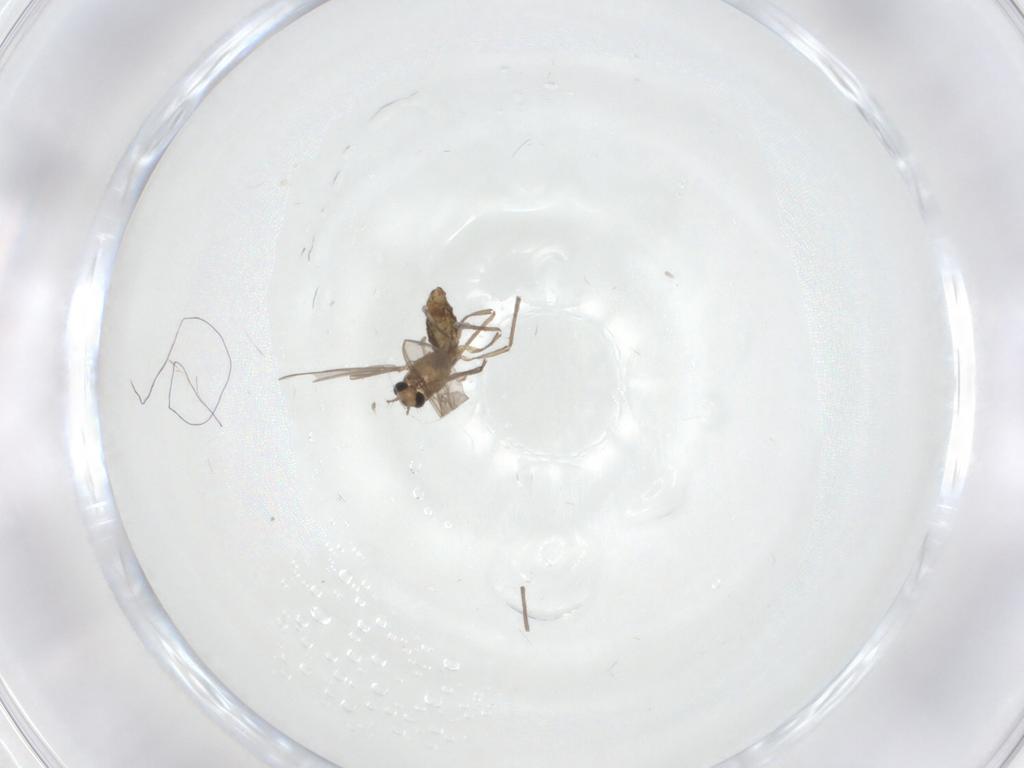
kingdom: Animalia
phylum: Arthropoda
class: Insecta
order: Diptera
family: Chironomidae
